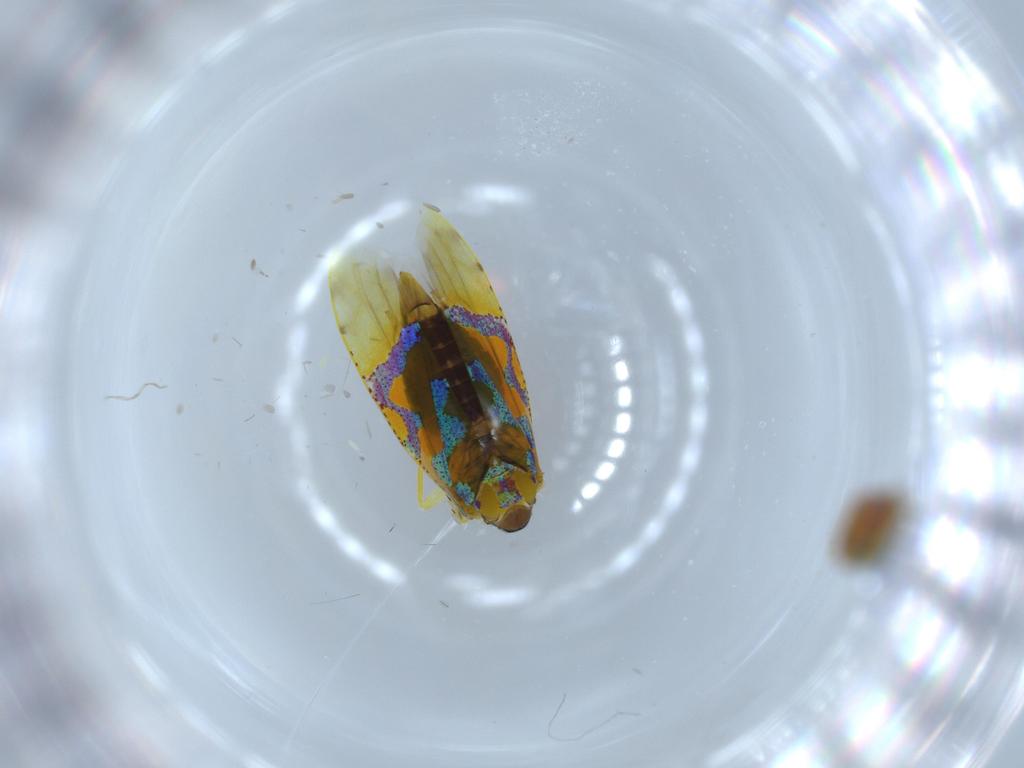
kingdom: Animalia
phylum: Arthropoda
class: Insecta
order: Hemiptera
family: Cicadellidae
